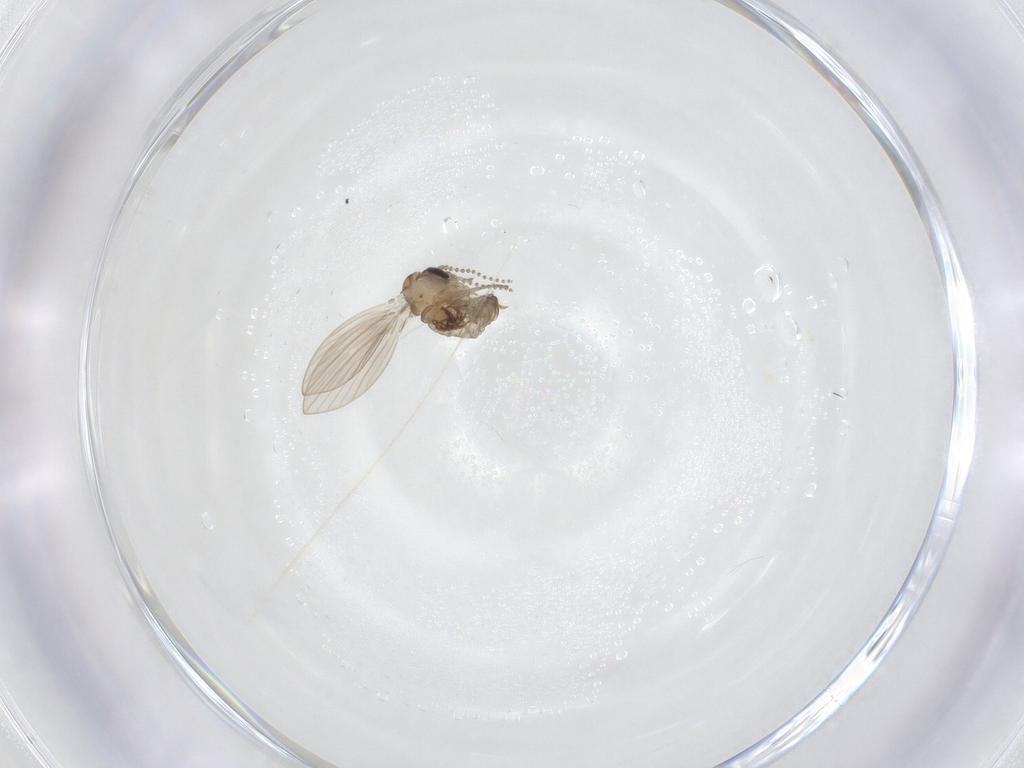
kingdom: Animalia
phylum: Arthropoda
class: Insecta
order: Diptera
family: Psychodidae
